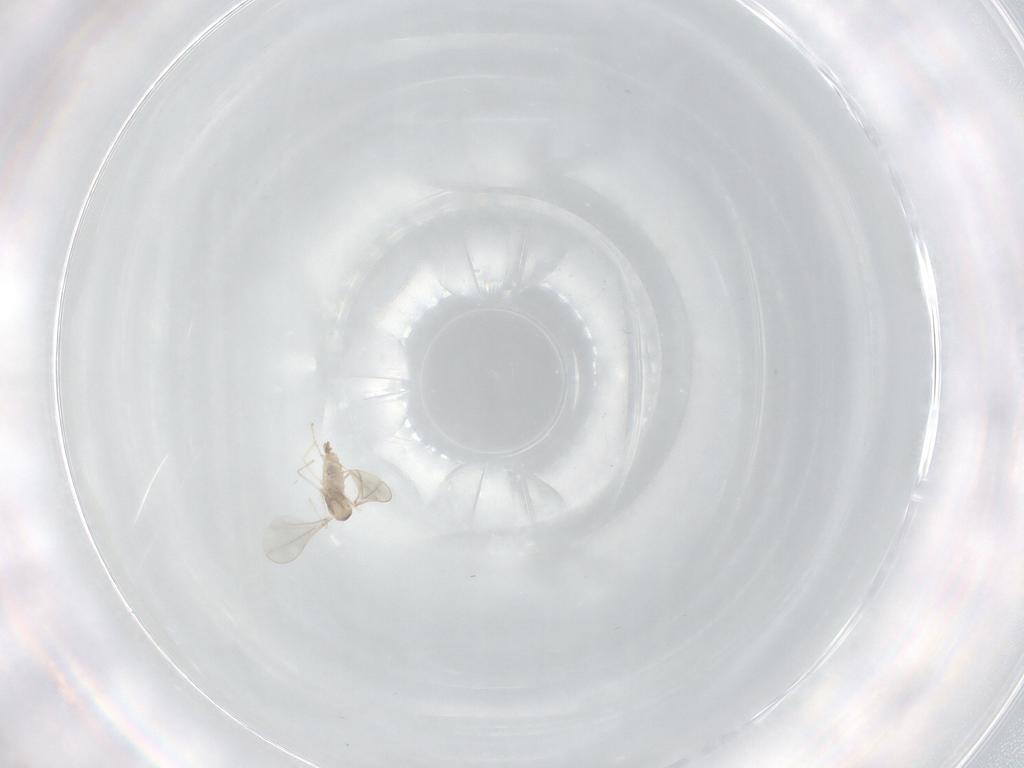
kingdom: Animalia
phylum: Arthropoda
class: Insecta
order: Diptera
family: Cecidomyiidae
